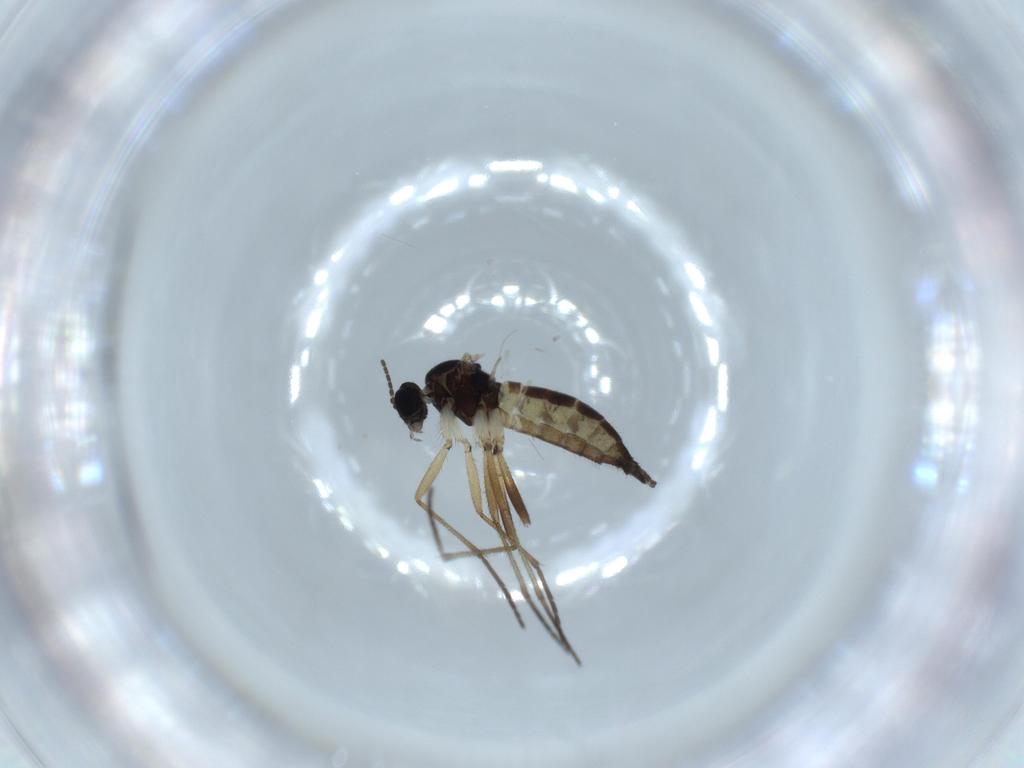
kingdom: Animalia
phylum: Arthropoda
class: Insecta
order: Diptera
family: Sciaridae
